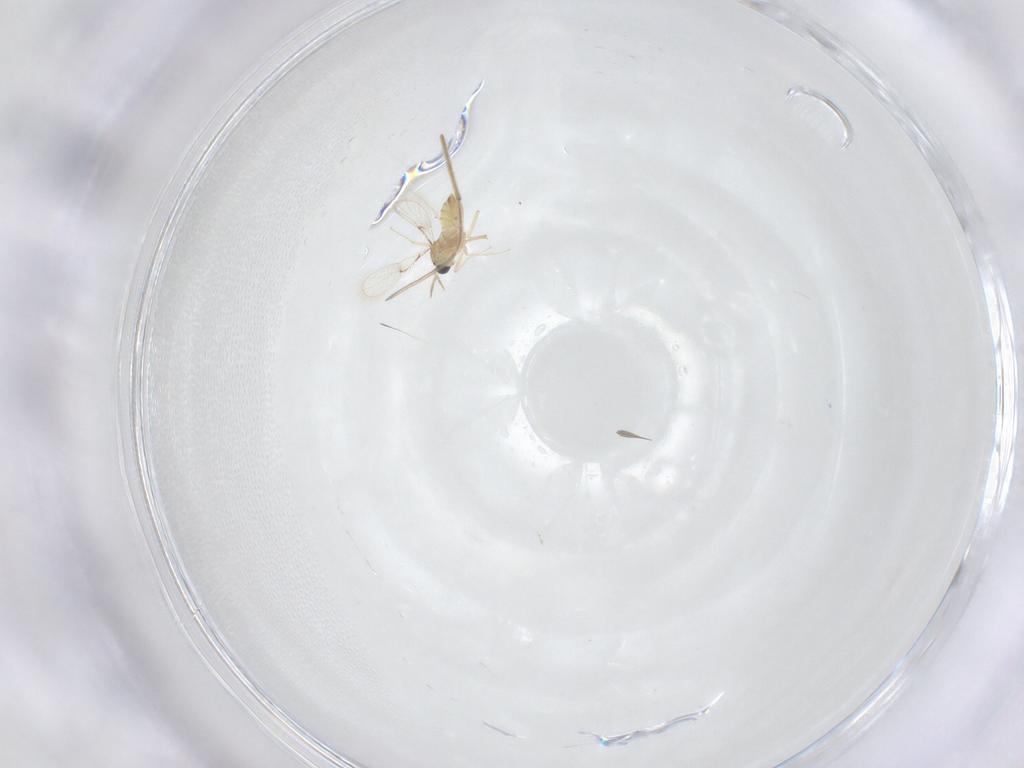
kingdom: Animalia
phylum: Arthropoda
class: Insecta
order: Hymenoptera
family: Trichogrammatidae
